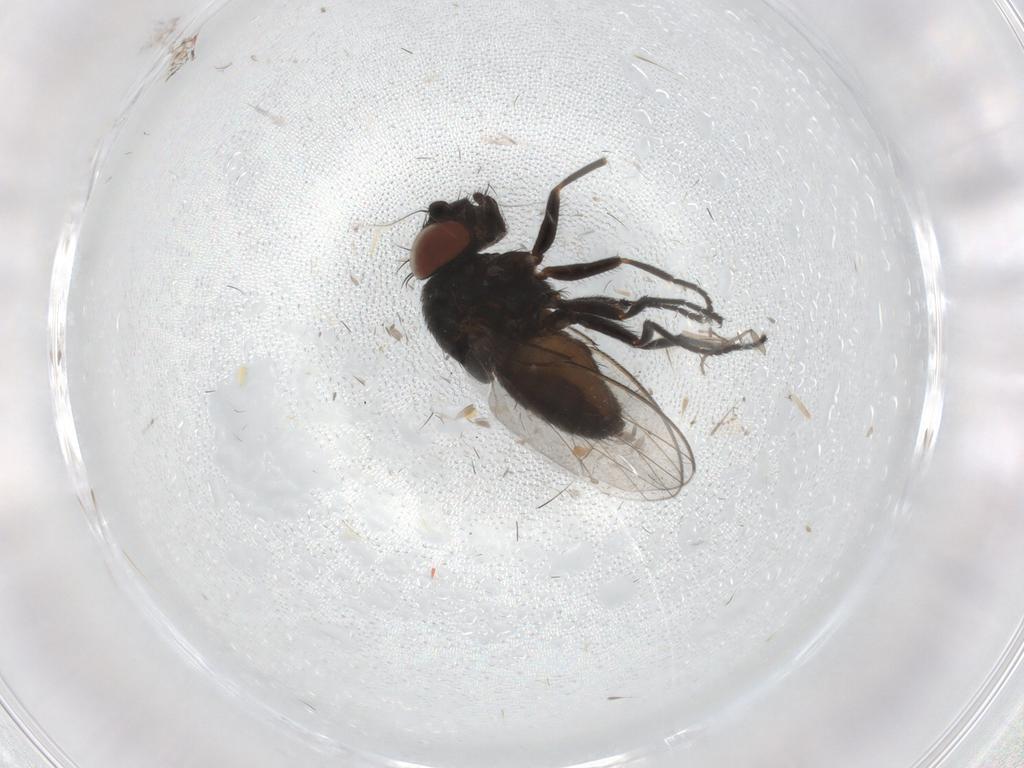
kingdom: Animalia
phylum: Arthropoda
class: Insecta
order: Diptera
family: Milichiidae
